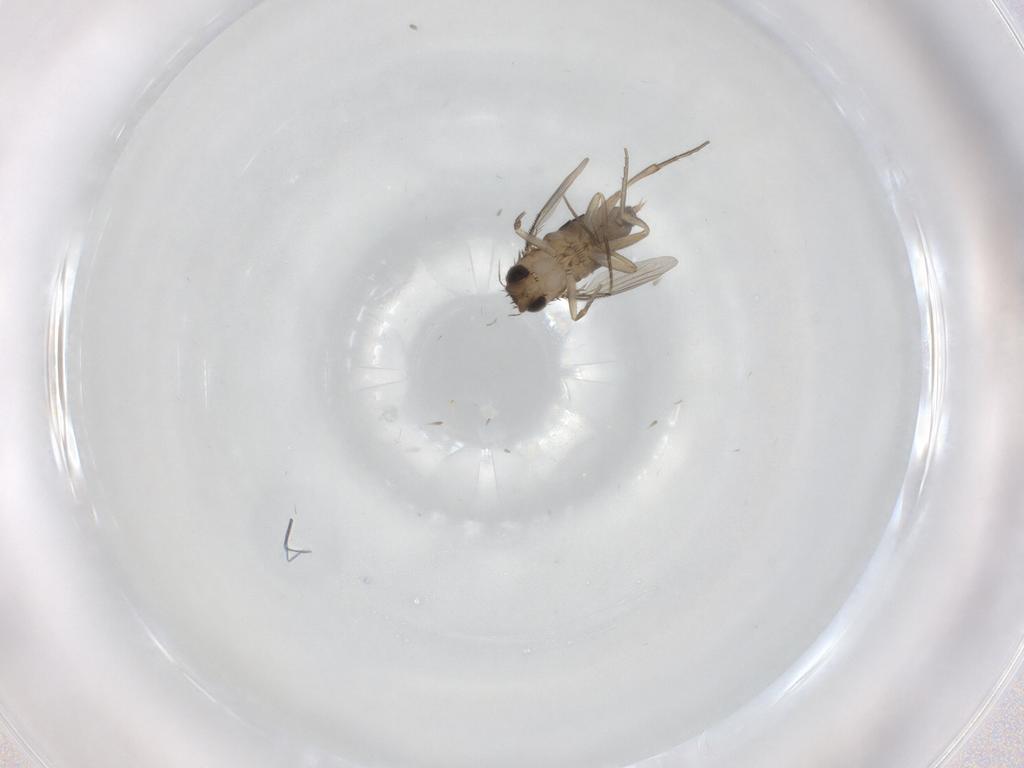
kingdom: Animalia
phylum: Arthropoda
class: Insecta
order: Diptera
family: Phoridae
